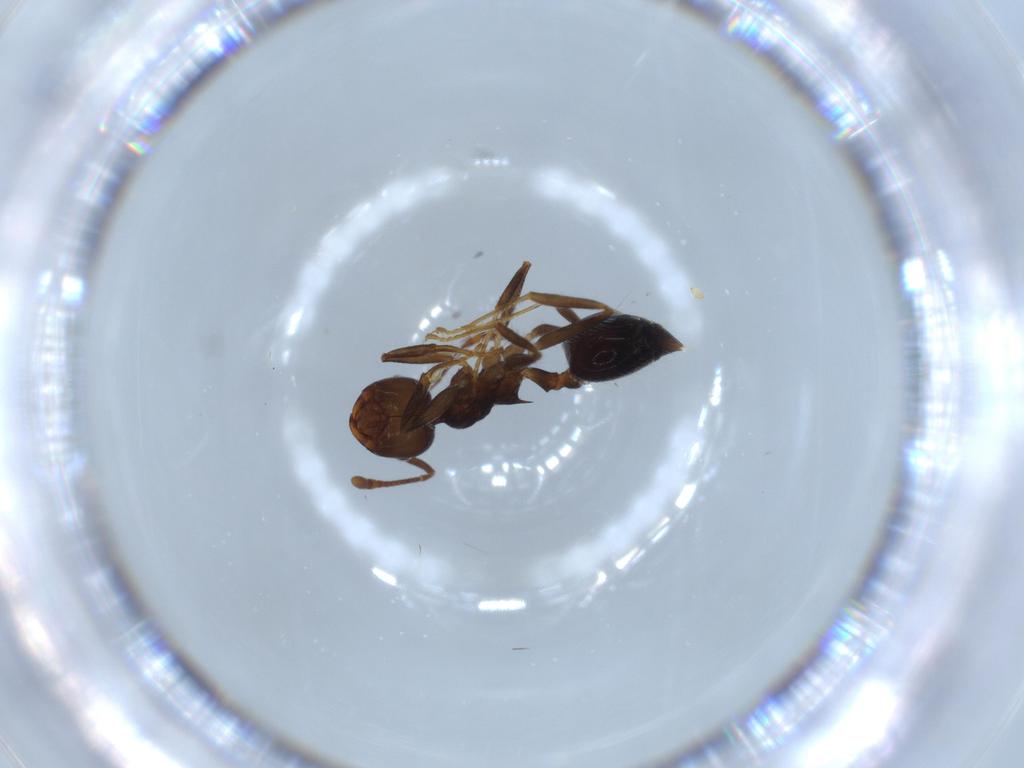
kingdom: Animalia
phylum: Arthropoda
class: Insecta
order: Hymenoptera
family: Formicidae
